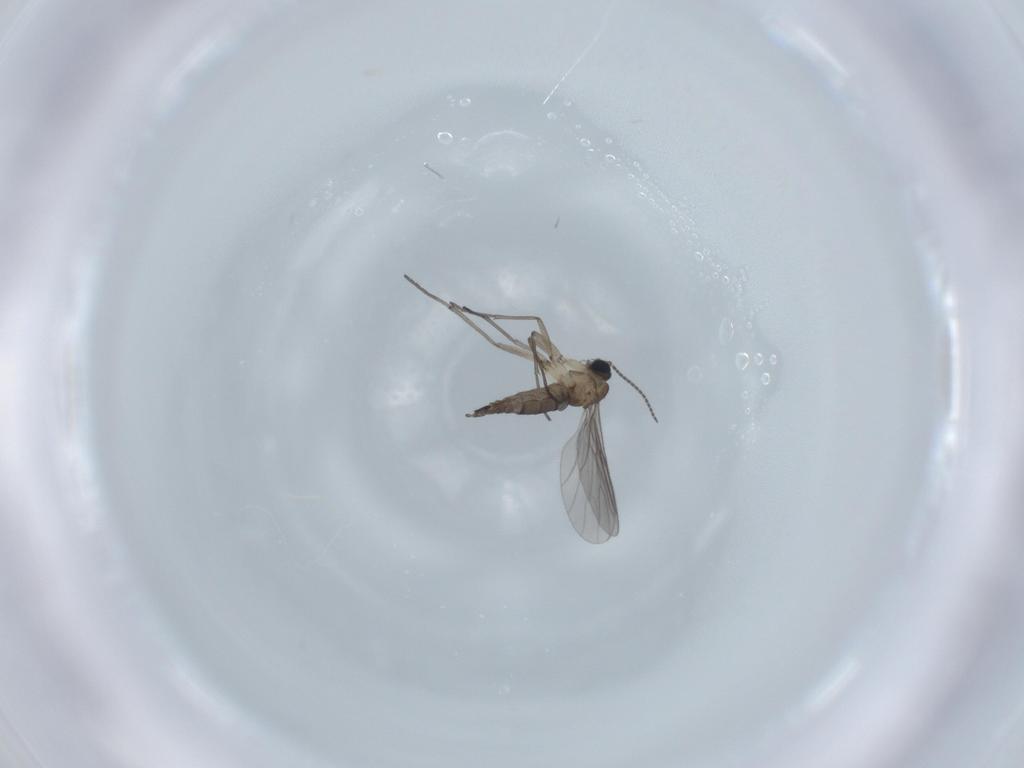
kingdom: Animalia
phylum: Arthropoda
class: Insecta
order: Diptera
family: Sciaridae
